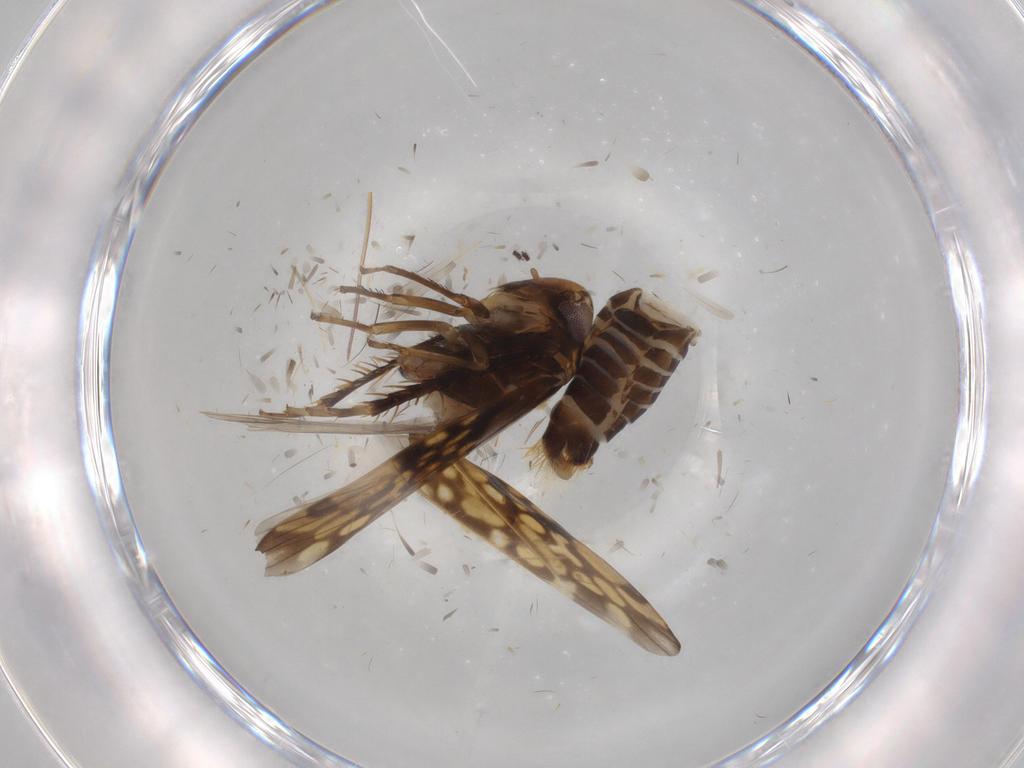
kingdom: Animalia
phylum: Arthropoda
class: Insecta
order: Hemiptera
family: Cicadellidae
